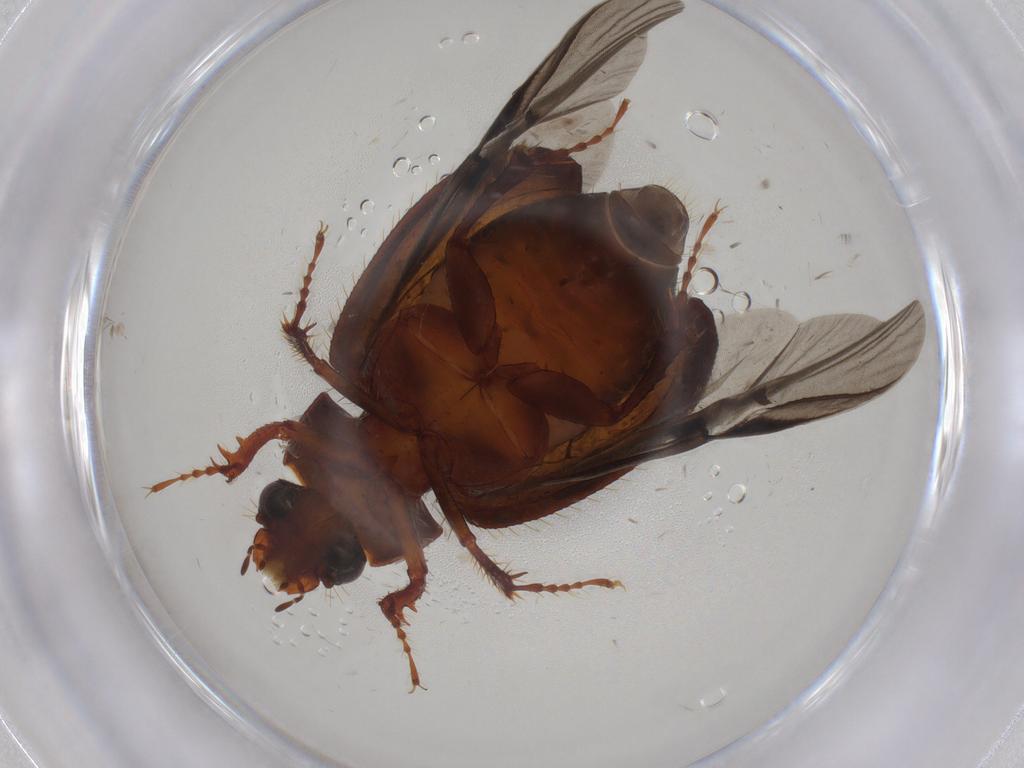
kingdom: Animalia
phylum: Arthropoda
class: Insecta
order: Coleoptera
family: Hybosoridae
